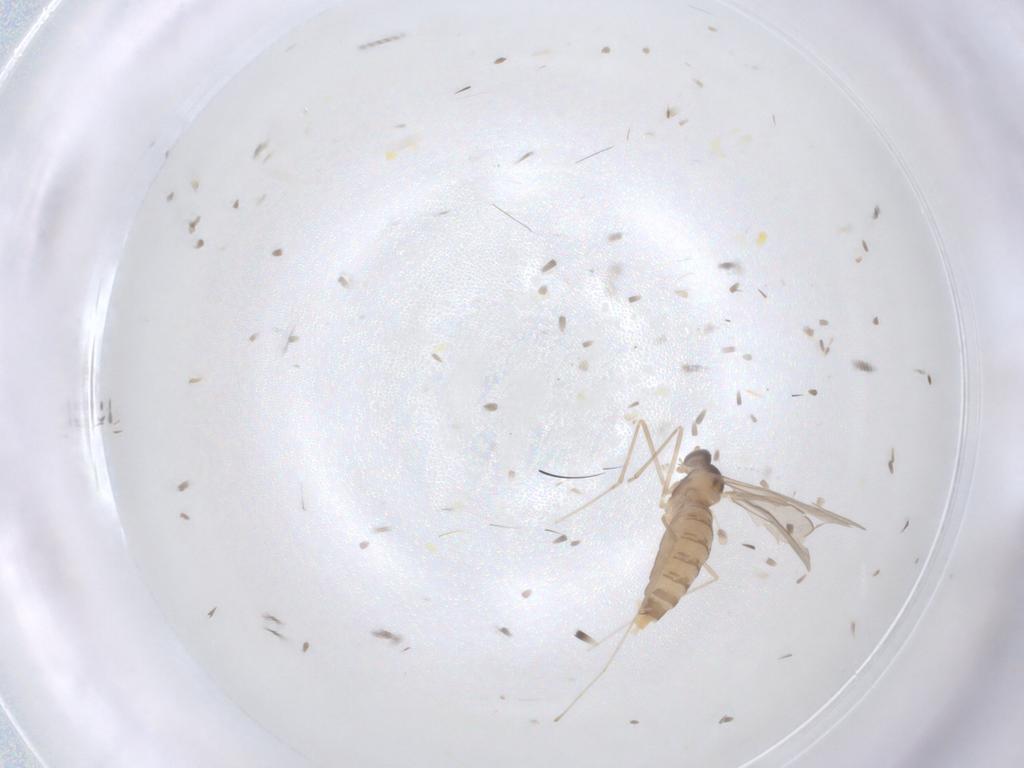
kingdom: Animalia
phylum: Arthropoda
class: Insecta
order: Diptera
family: Cecidomyiidae
